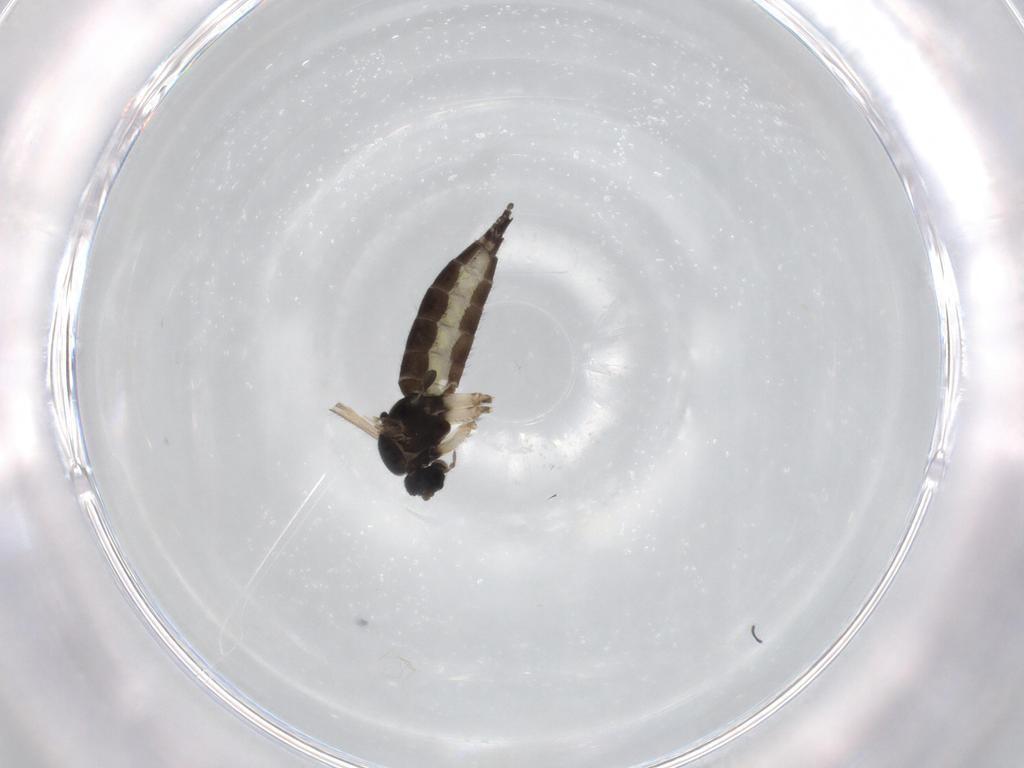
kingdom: Animalia
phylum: Arthropoda
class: Insecta
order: Diptera
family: Sciaridae
